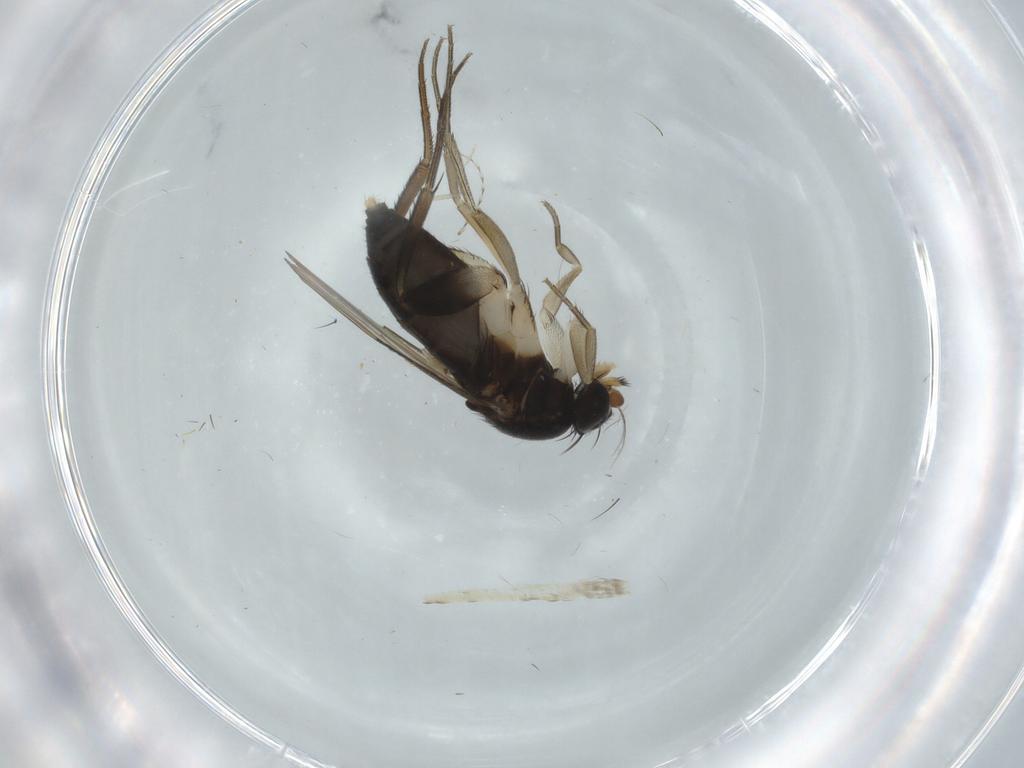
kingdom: Animalia
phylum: Arthropoda
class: Insecta
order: Diptera
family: Phoridae
